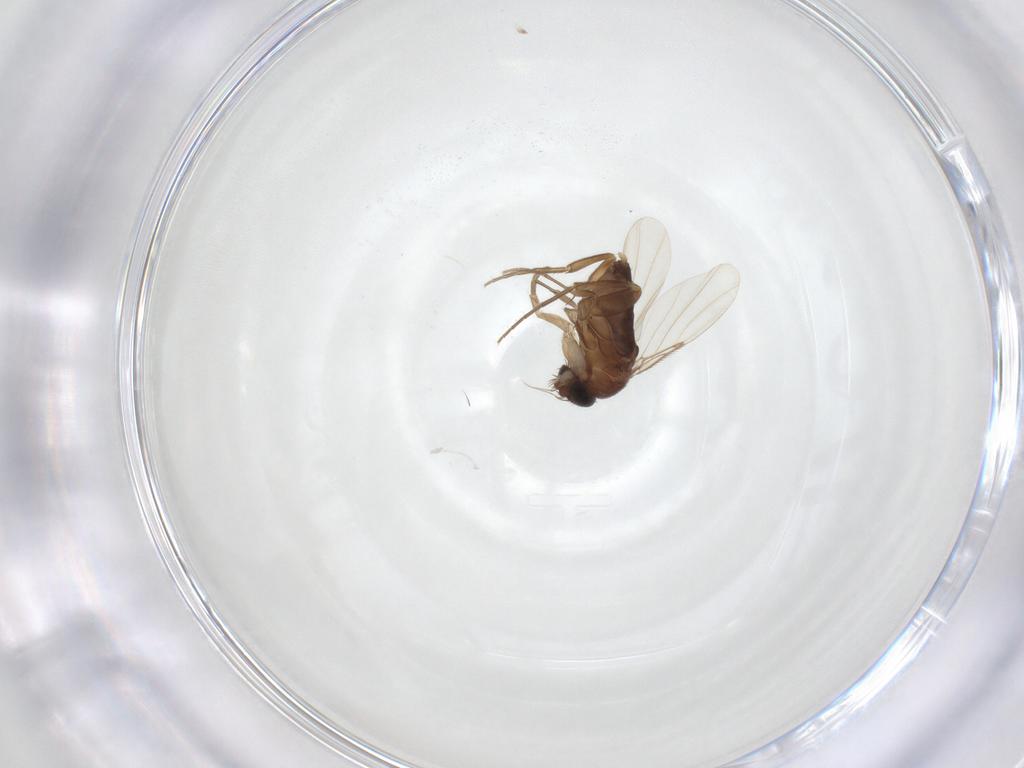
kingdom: Animalia
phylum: Arthropoda
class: Insecta
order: Diptera
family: Phoridae
